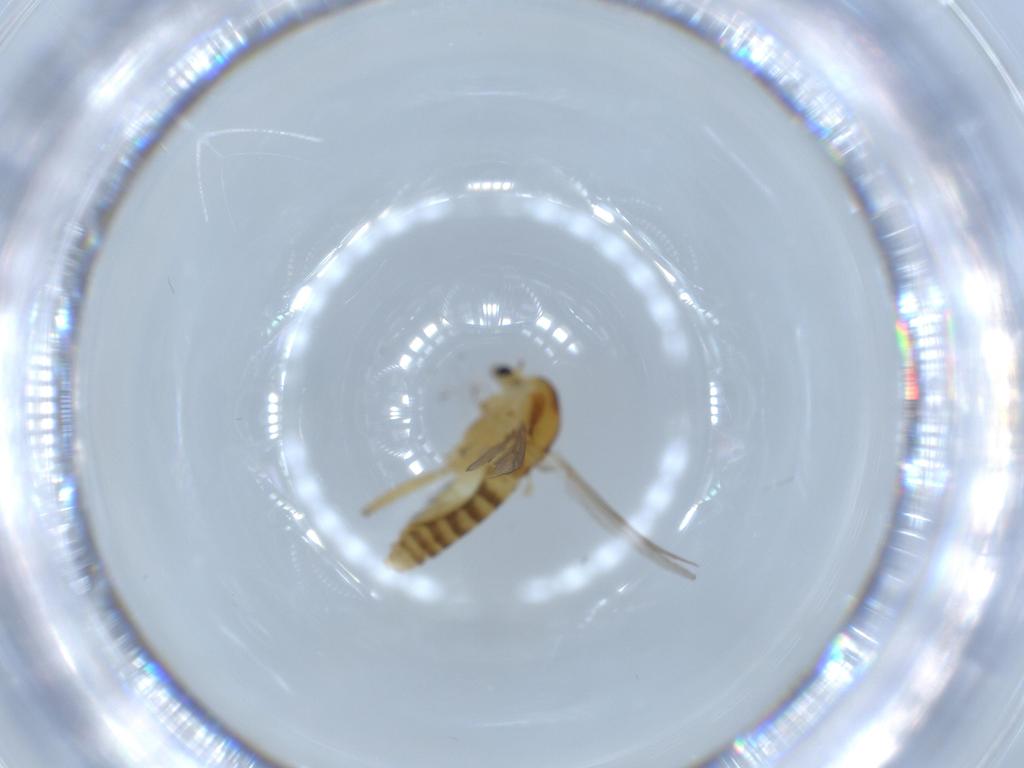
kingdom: Animalia
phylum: Arthropoda
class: Insecta
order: Diptera
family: Chironomidae
